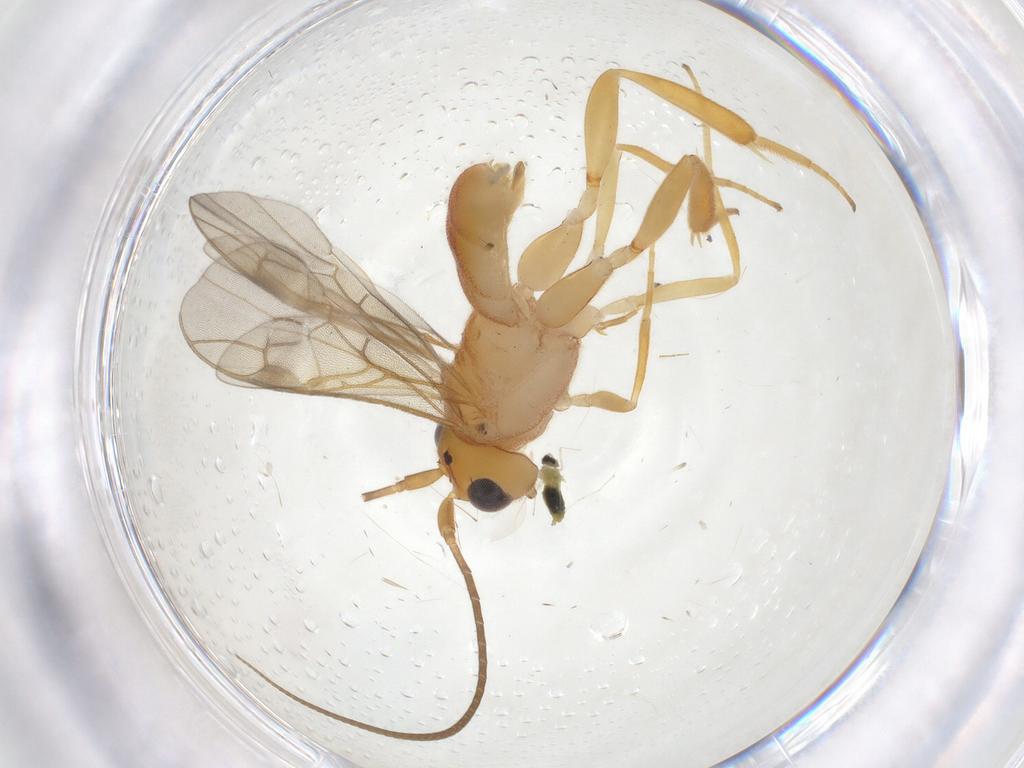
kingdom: Animalia
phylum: Arthropoda
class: Insecta
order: Hymenoptera
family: Braconidae
